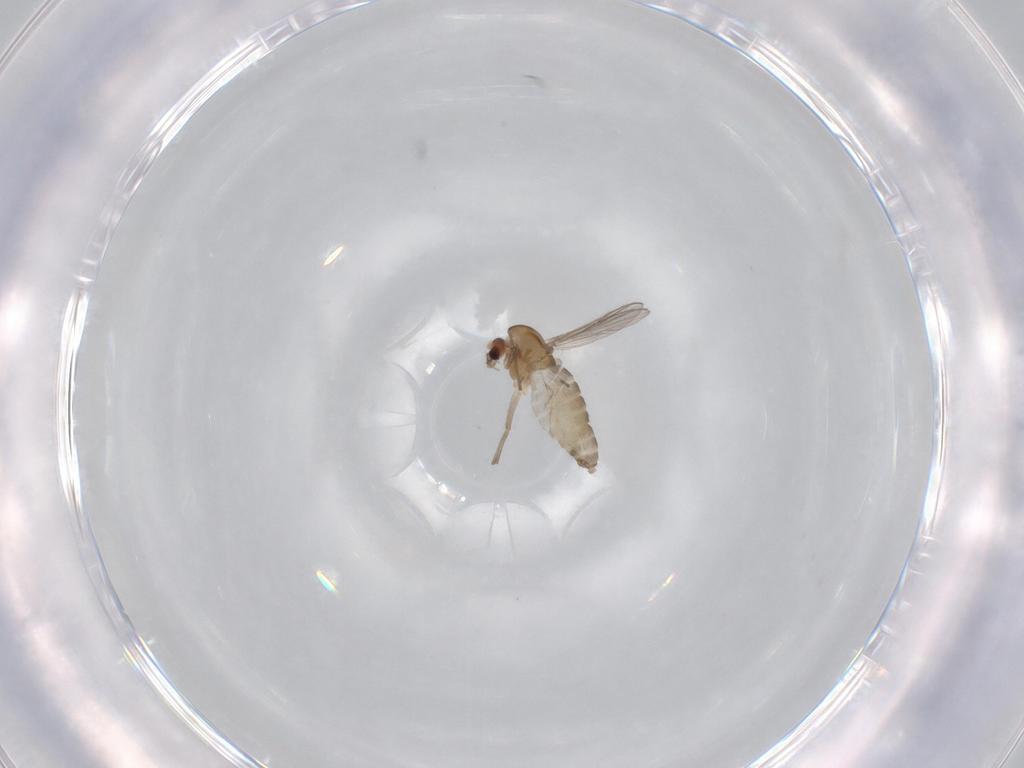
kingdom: Animalia
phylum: Arthropoda
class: Insecta
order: Diptera
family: Chironomidae
